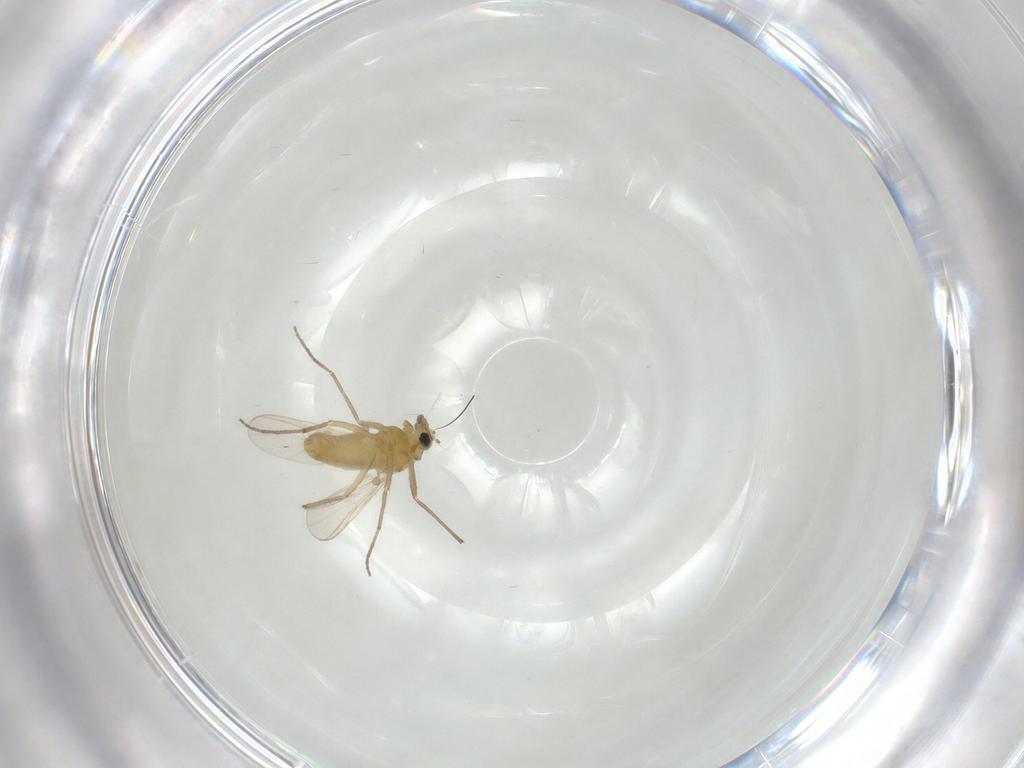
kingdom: Animalia
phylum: Arthropoda
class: Insecta
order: Diptera
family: Chironomidae
